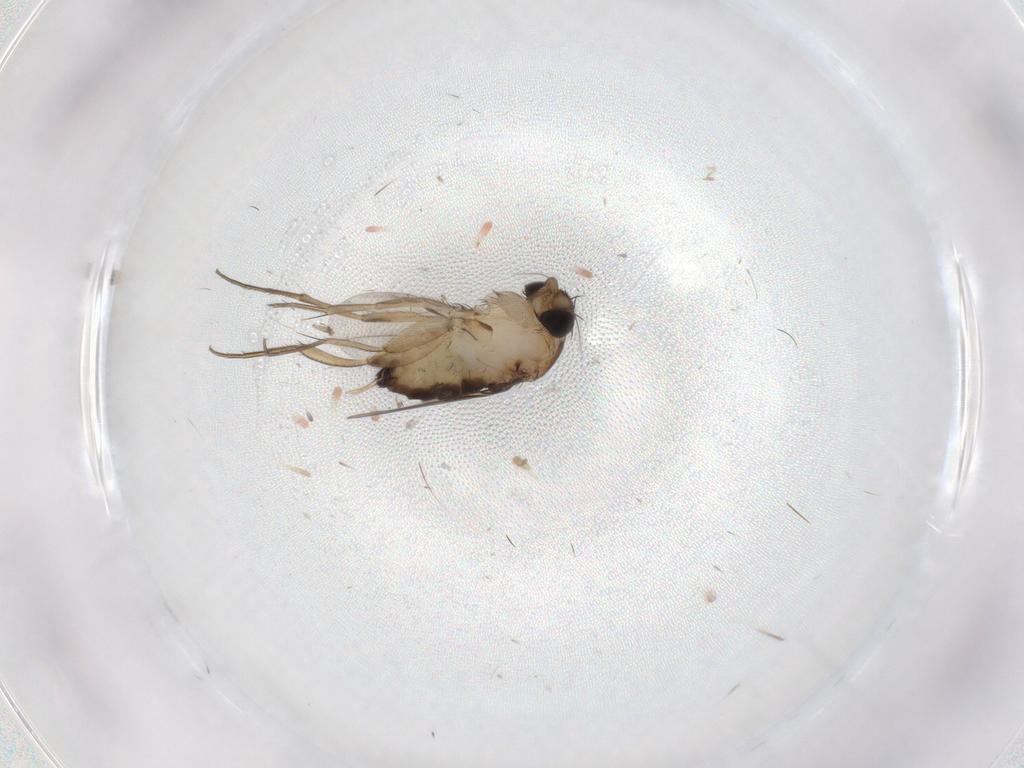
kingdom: Animalia
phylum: Arthropoda
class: Insecta
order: Diptera
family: Phoridae
